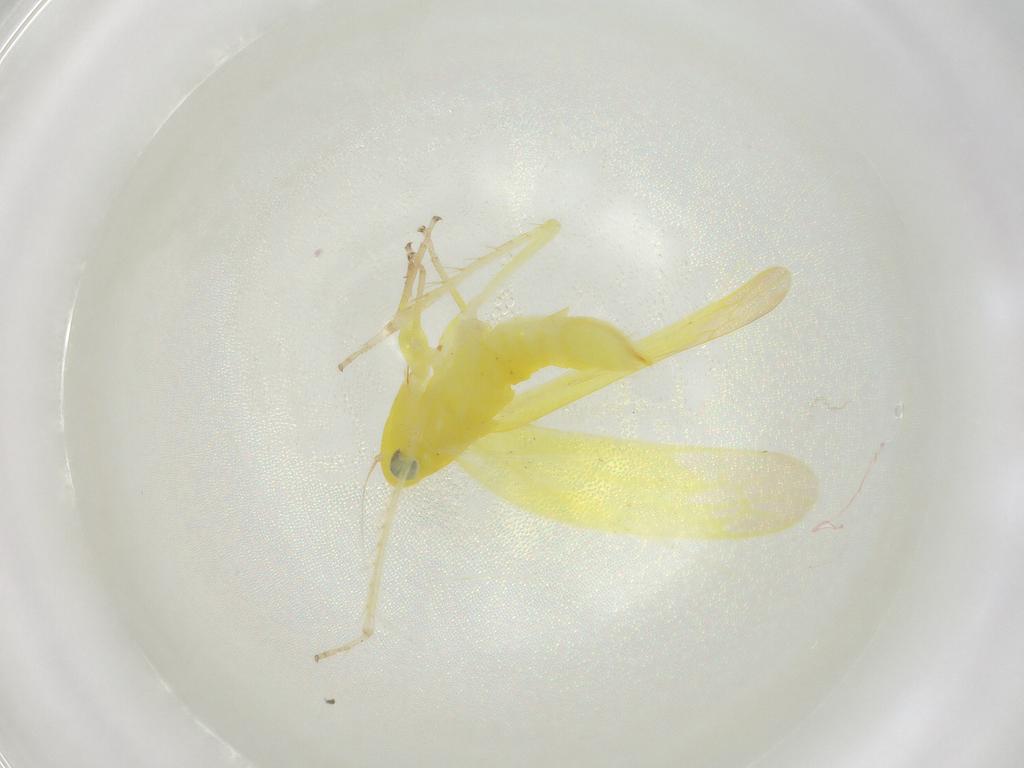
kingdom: Animalia
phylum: Arthropoda
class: Insecta
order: Hemiptera
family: Cicadellidae
